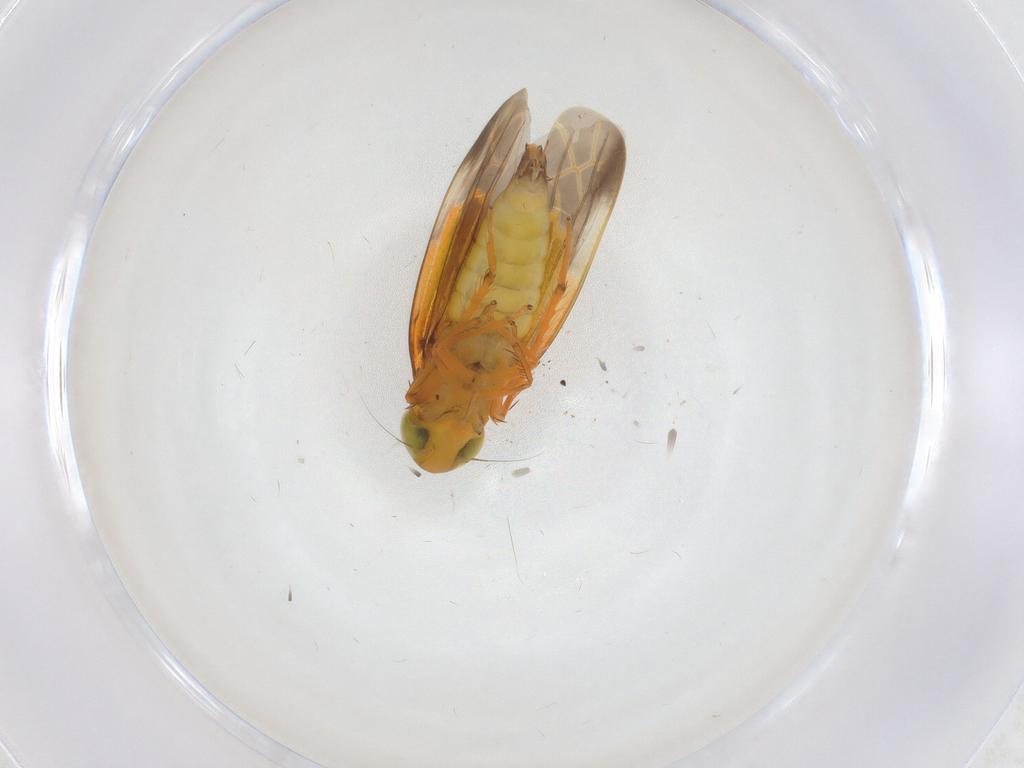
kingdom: Animalia
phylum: Arthropoda
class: Insecta
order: Hemiptera
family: Cicadellidae
